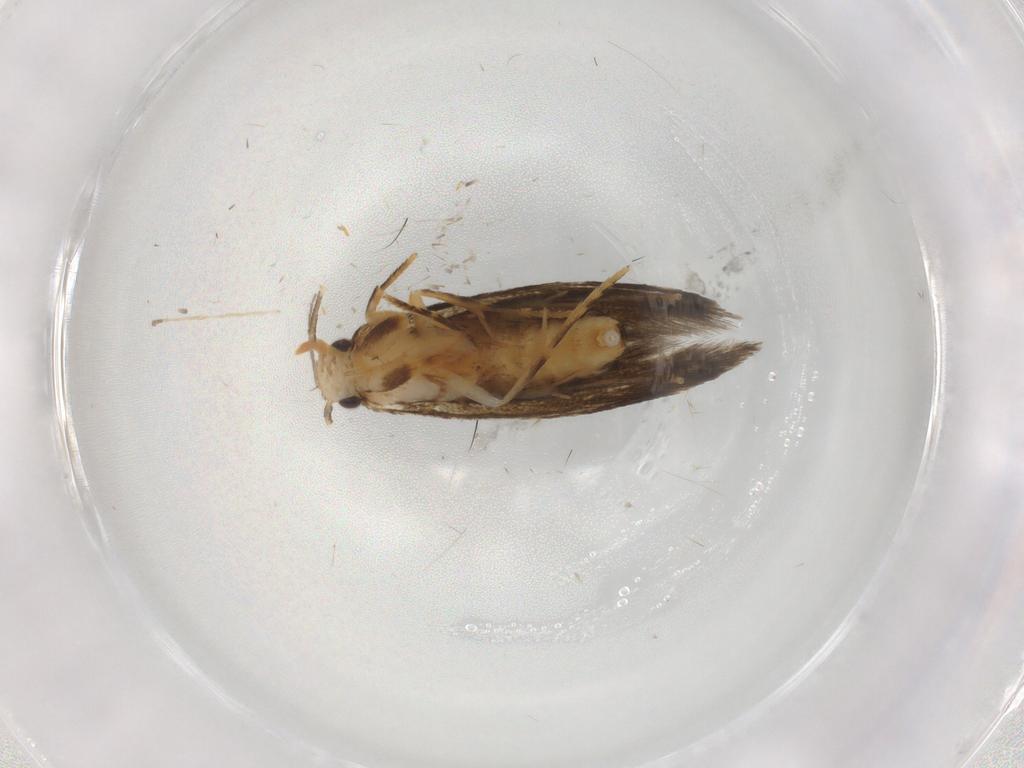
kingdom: Animalia
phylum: Arthropoda
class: Insecta
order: Lepidoptera
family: Tineidae
